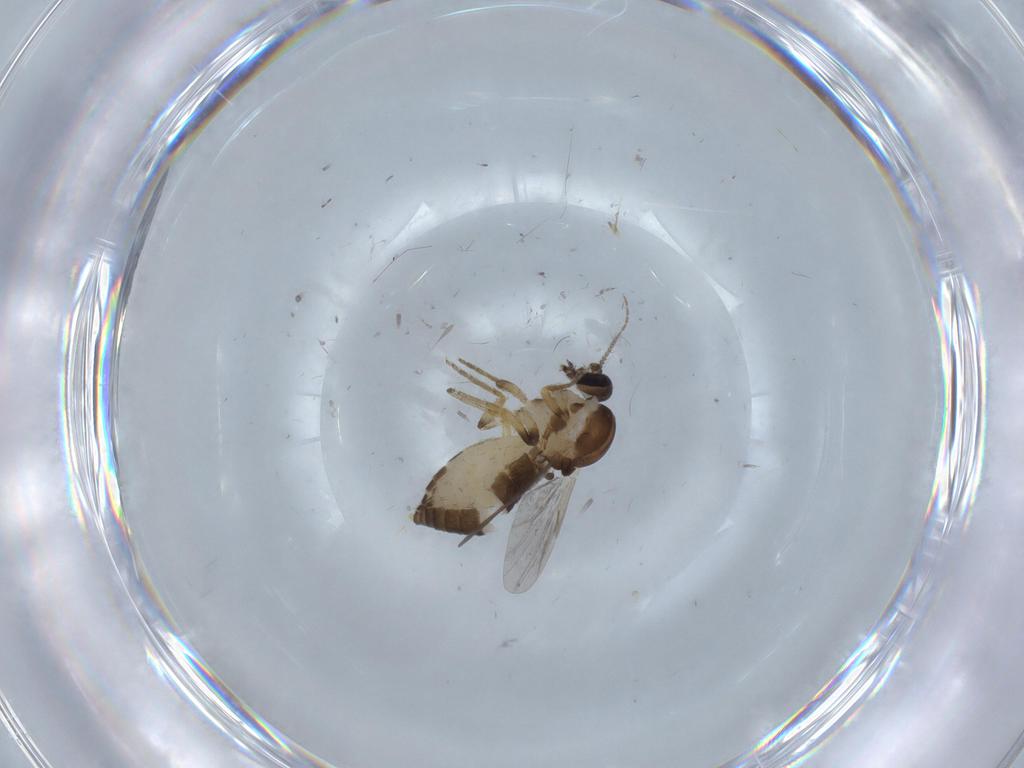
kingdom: Animalia
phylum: Arthropoda
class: Insecta
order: Diptera
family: Ceratopogonidae
